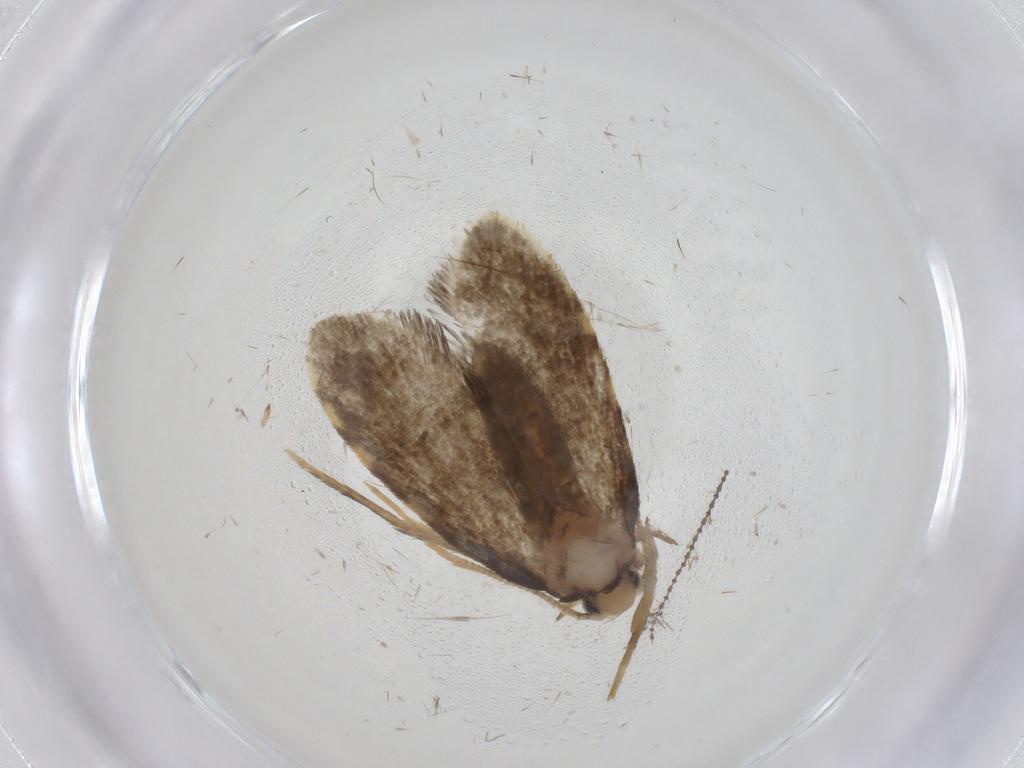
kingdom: Animalia
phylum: Arthropoda
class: Insecta
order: Lepidoptera
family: Psychidae
